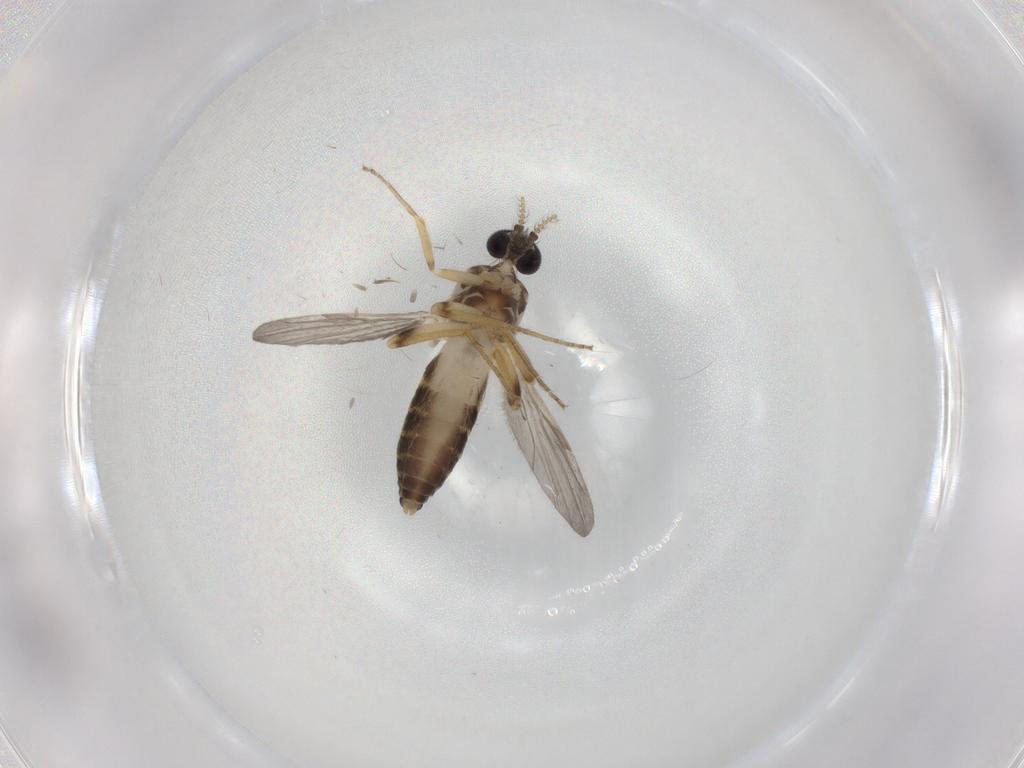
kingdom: Animalia
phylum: Arthropoda
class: Insecta
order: Diptera
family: Ceratopogonidae
